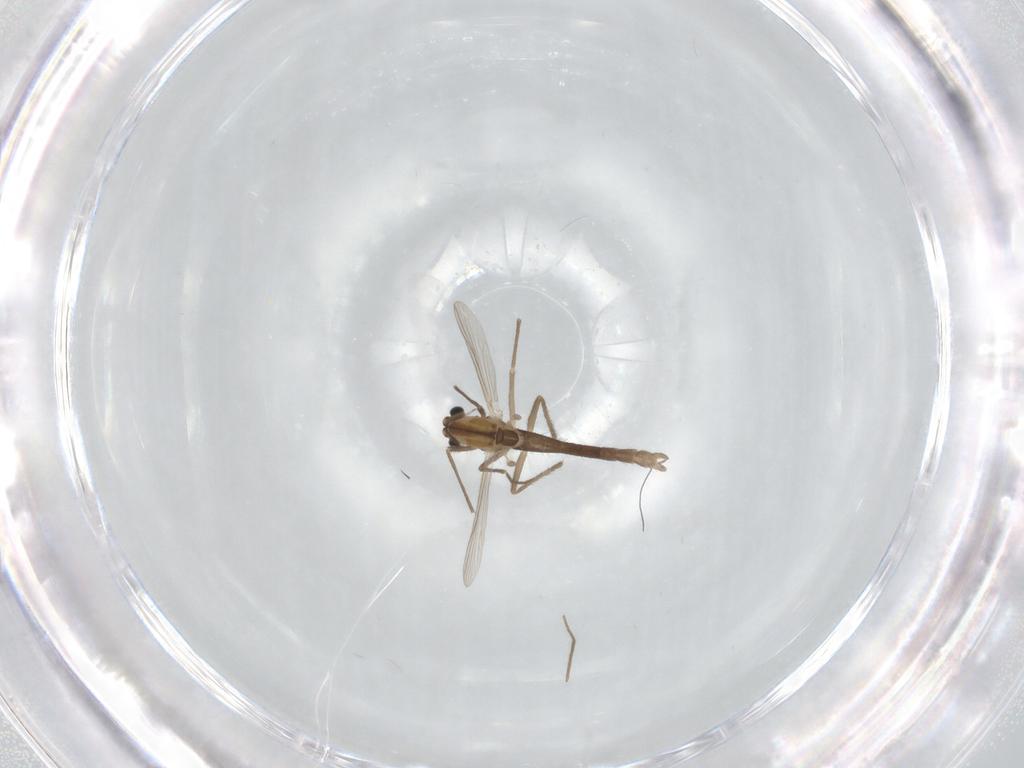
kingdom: Animalia
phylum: Arthropoda
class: Insecta
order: Diptera
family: Chironomidae
